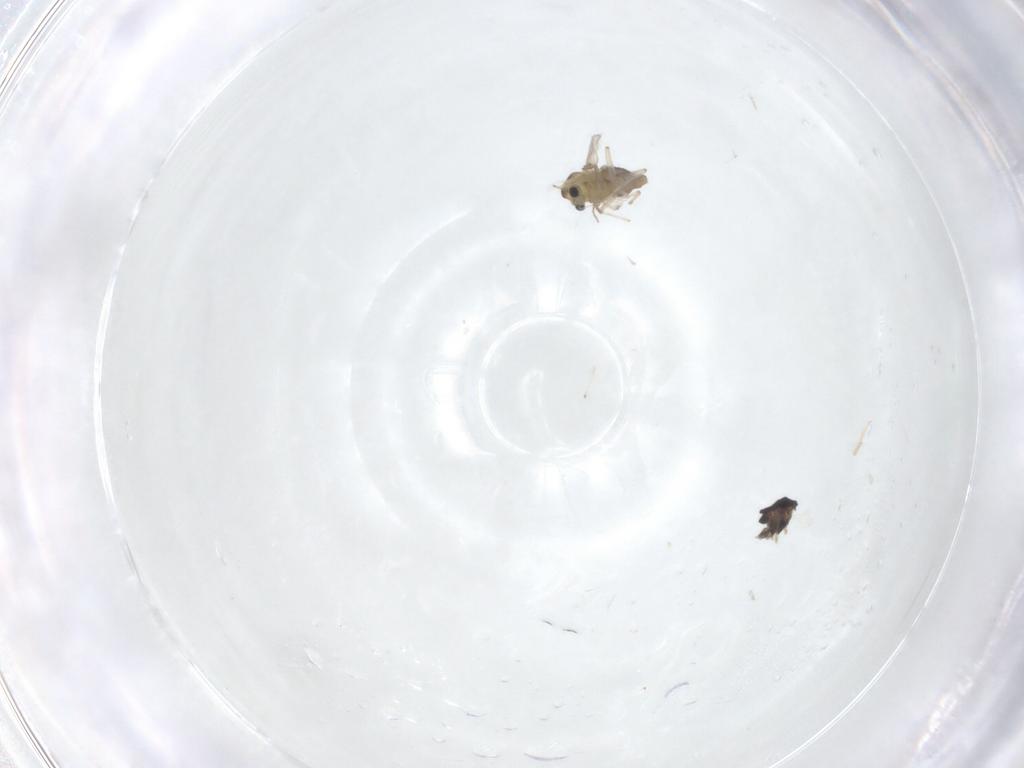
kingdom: Animalia
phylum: Arthropoda
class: Insecta
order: Diptera
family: Chironomidae
